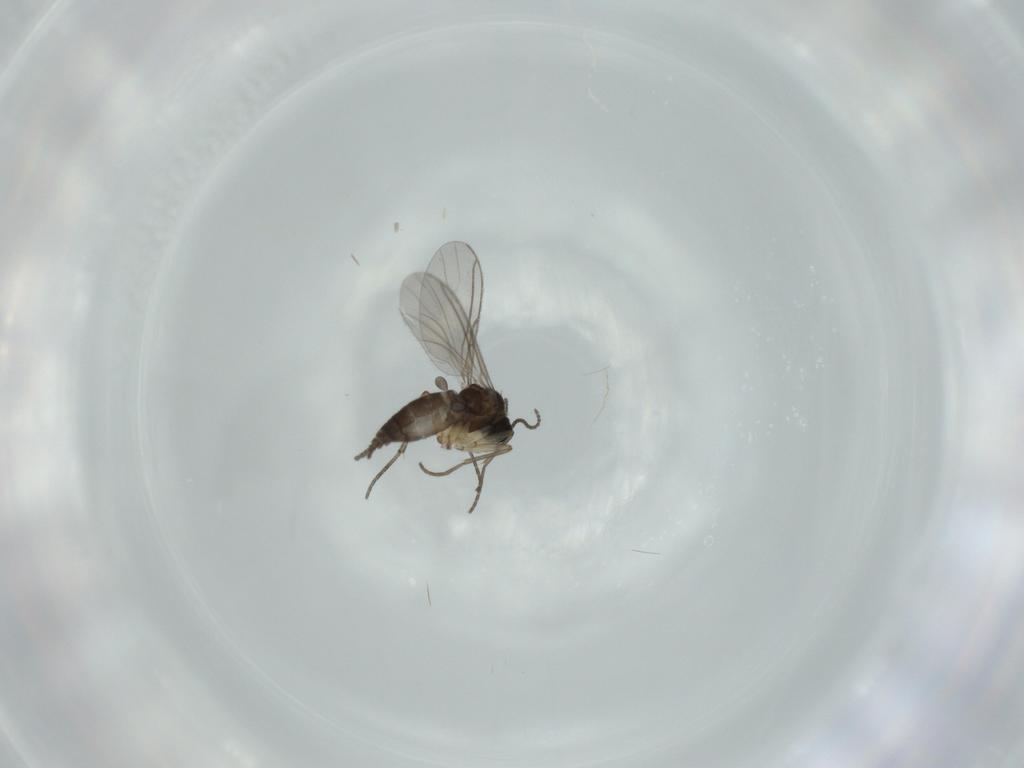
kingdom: Animalia
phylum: Arthropoda
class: Insecta
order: Diptera
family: Sciaridae
